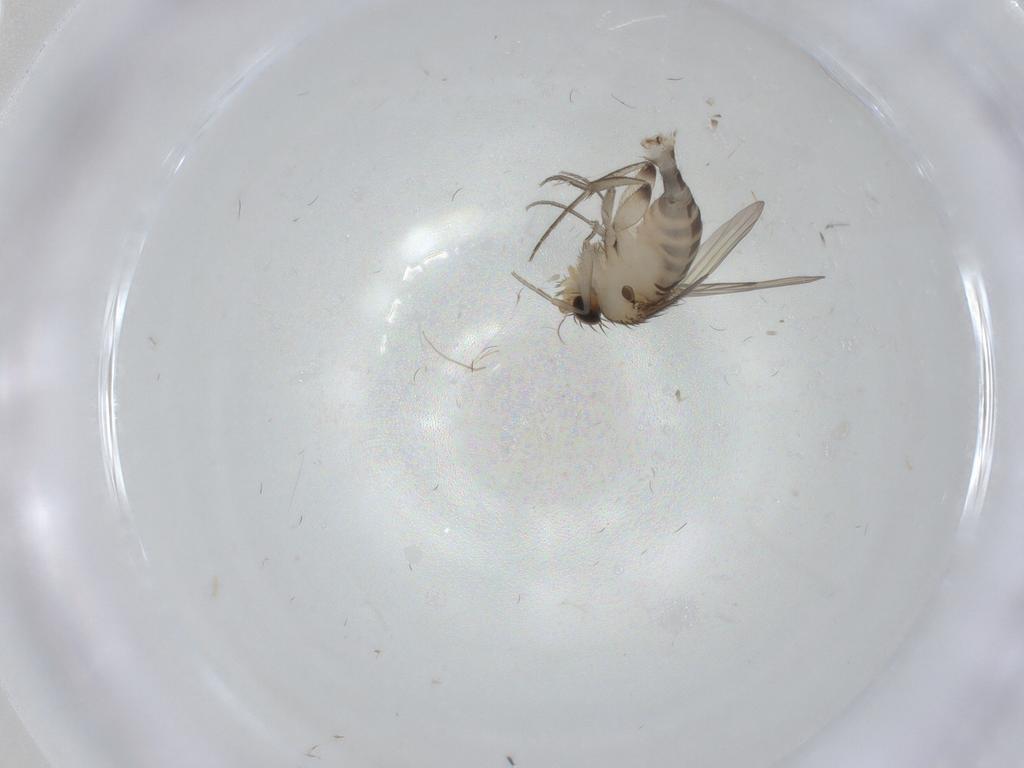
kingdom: Animalia
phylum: Arthropoda
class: Insecta
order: Diptera
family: Phoridae
